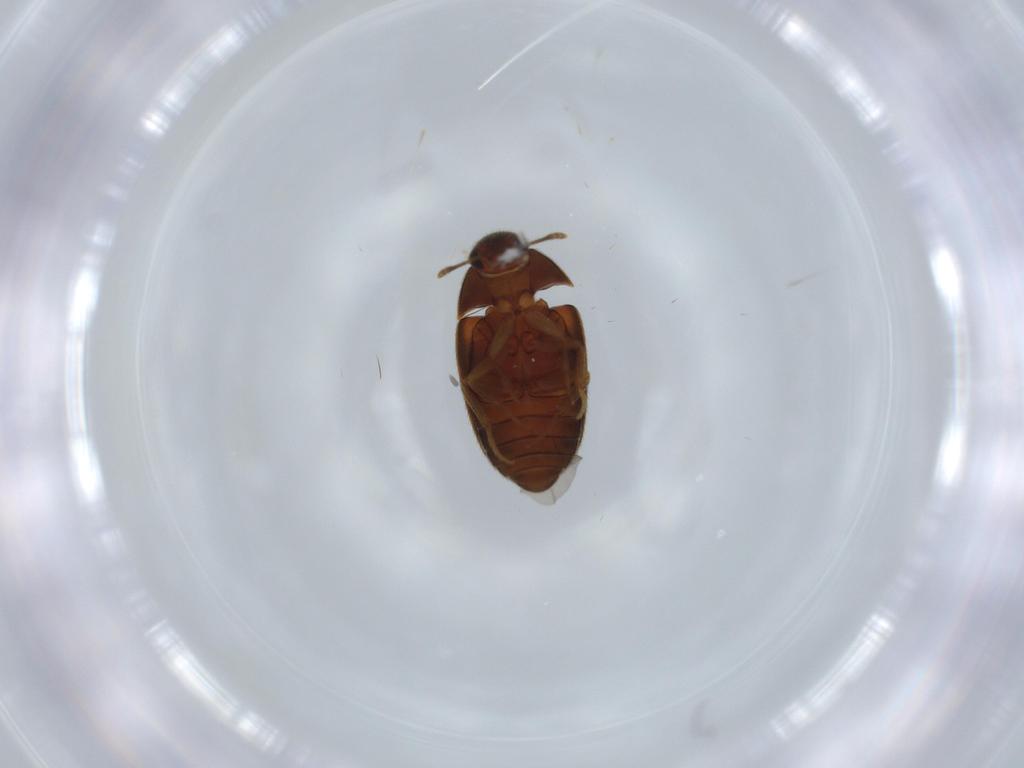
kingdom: Animalia
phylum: Arthropoda
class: Insecta
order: Coleoptera
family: Mycetophagidae
